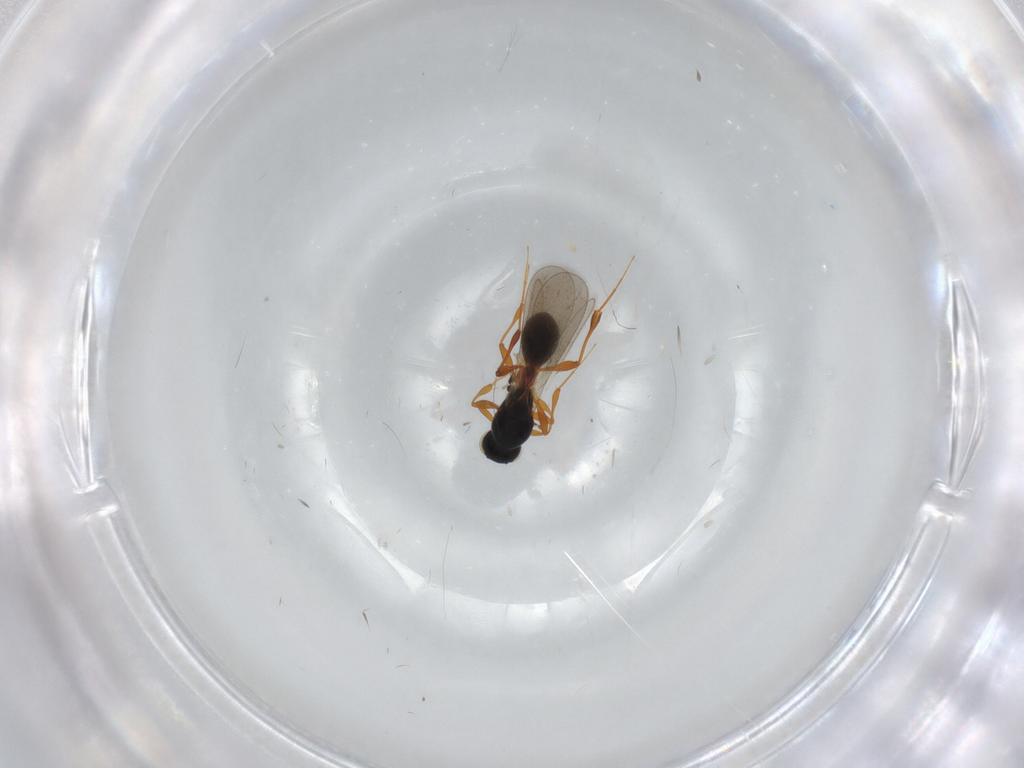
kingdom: Animalia
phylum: Arthropoda
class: Insecta
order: Hymenoptera
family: Platygastridae
